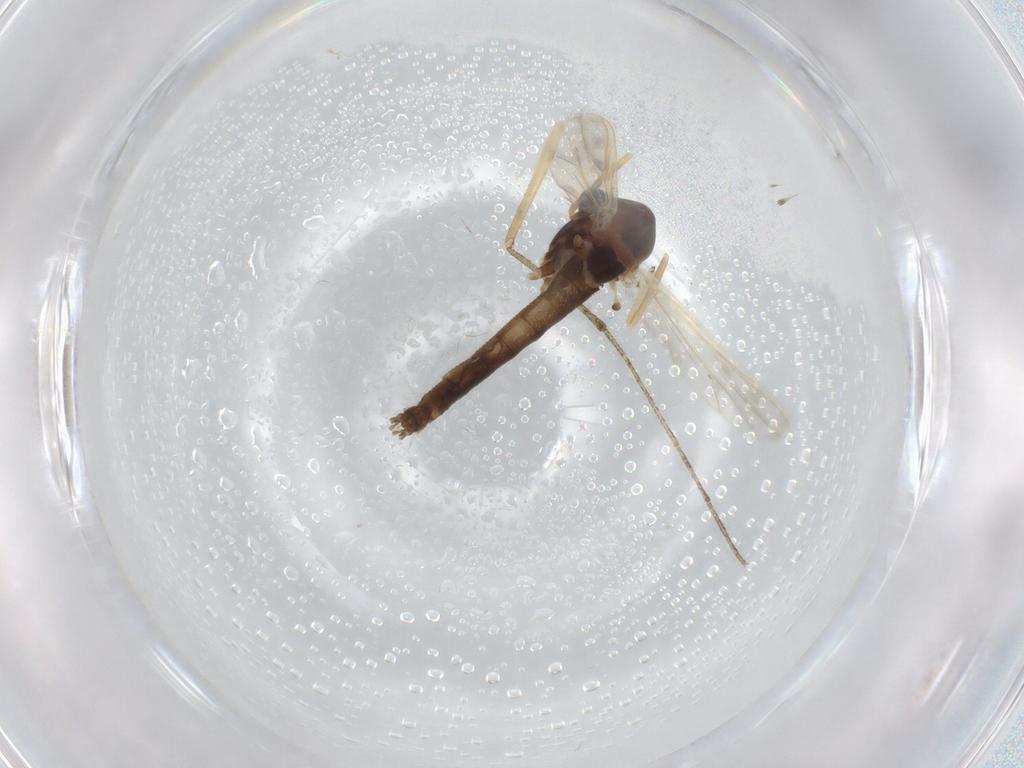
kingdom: Animalia
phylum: Arthropoda
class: Insecta
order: Diptera
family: Chironomidae
